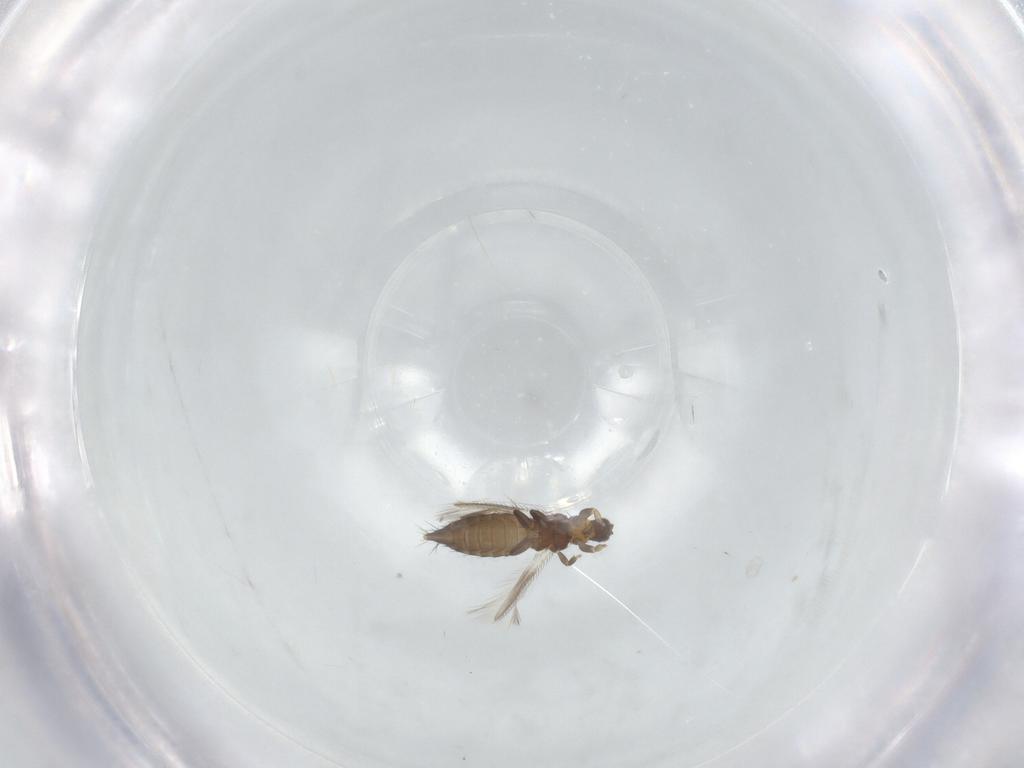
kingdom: Animalia
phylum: Arthropoda
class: Insecta
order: Thysanoptera
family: Thripidae
